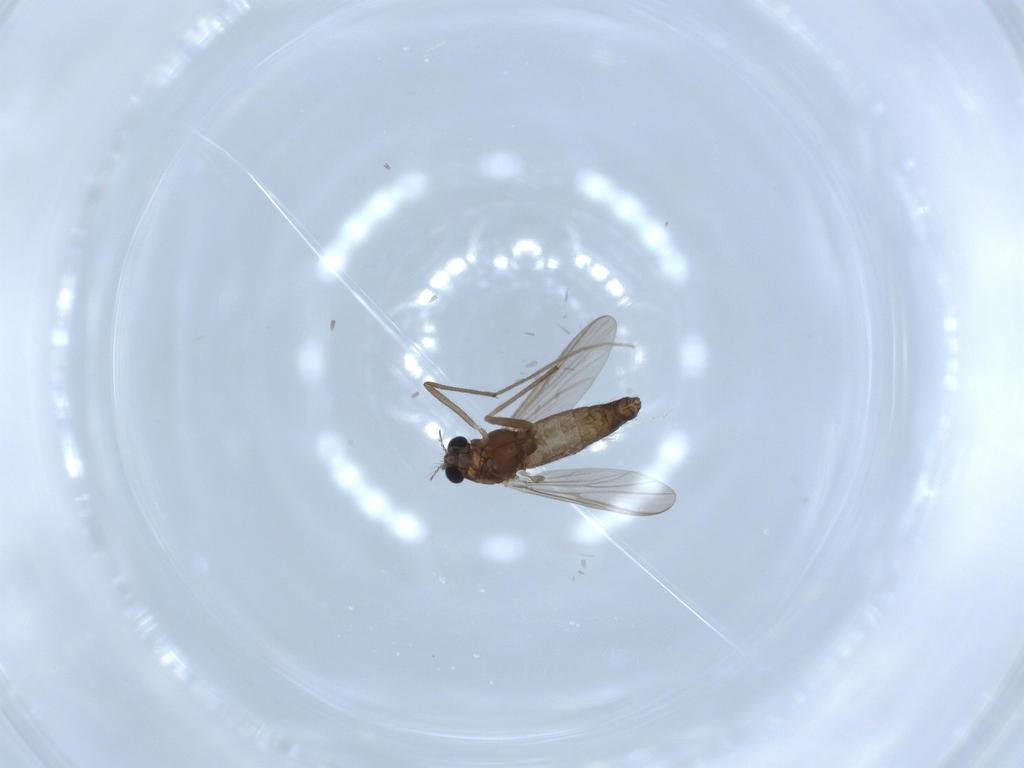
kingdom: Animalia
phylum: Arthropoda
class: Insecta
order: Diptera
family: Chironomidae
